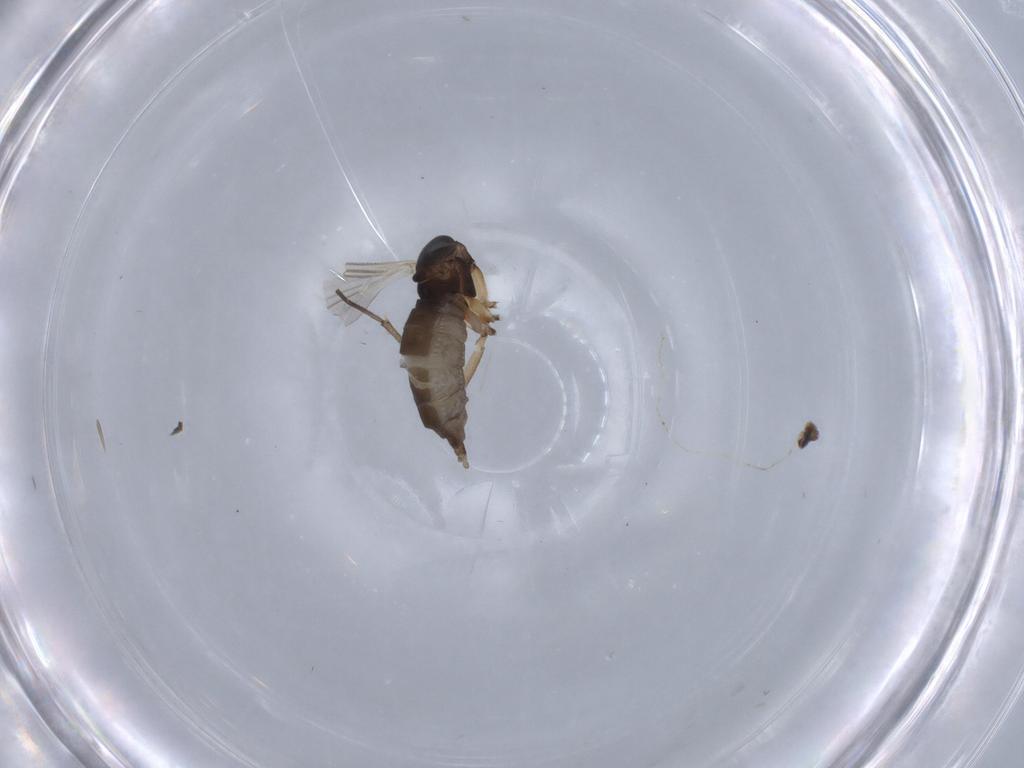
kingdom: Animalia
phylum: Arthropoda
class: Insecta
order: Diptera
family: Sciaridae
